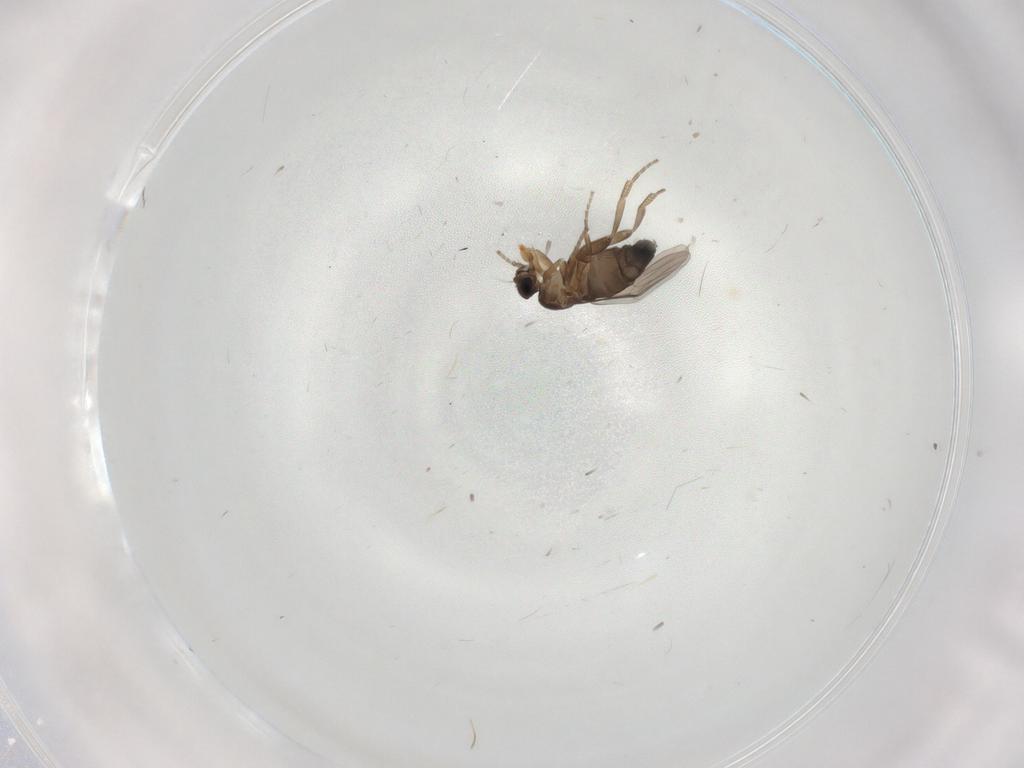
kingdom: Animalia
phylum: Arthropoda
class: Insecta
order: Diptera
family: Phoridae
